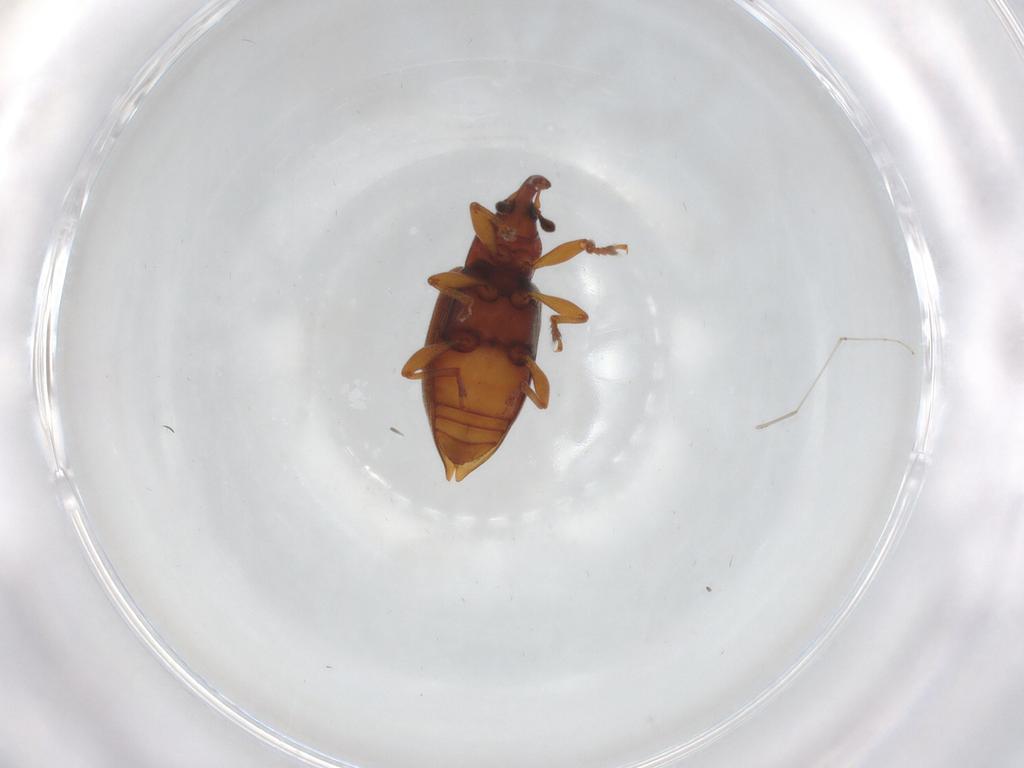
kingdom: Animalia
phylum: Arthropoda
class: Insecta
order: Coleoptera
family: Curculionidae
